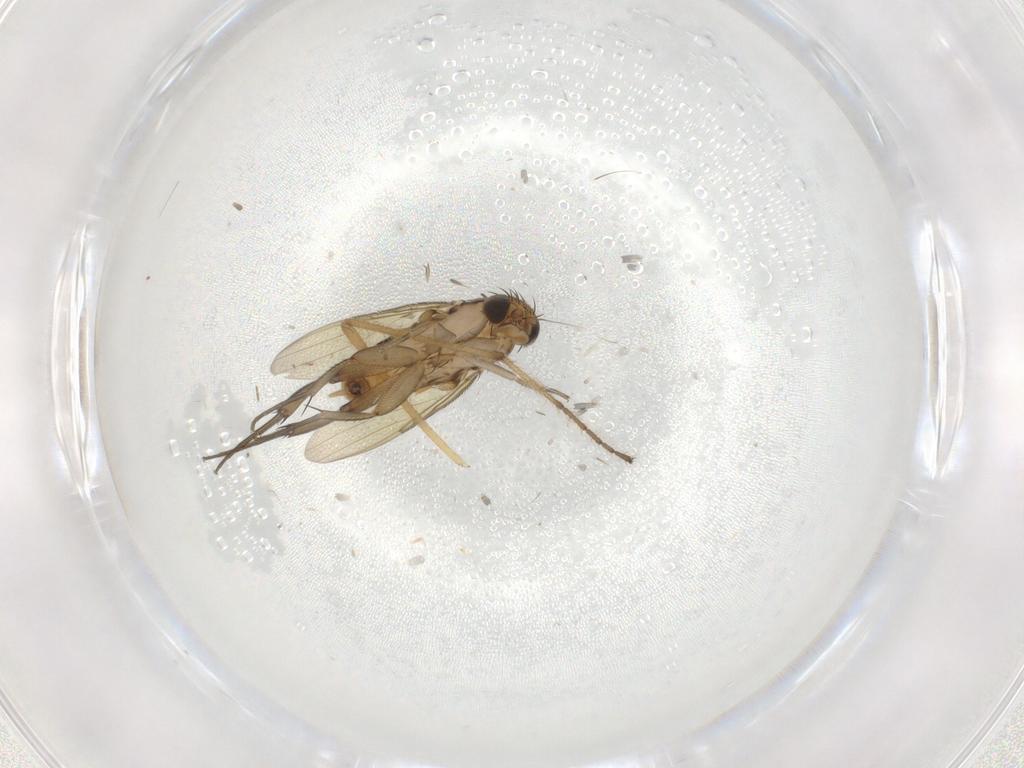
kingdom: Animalia
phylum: Arthropoda
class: Insecta
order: Diptera
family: Phoridae
